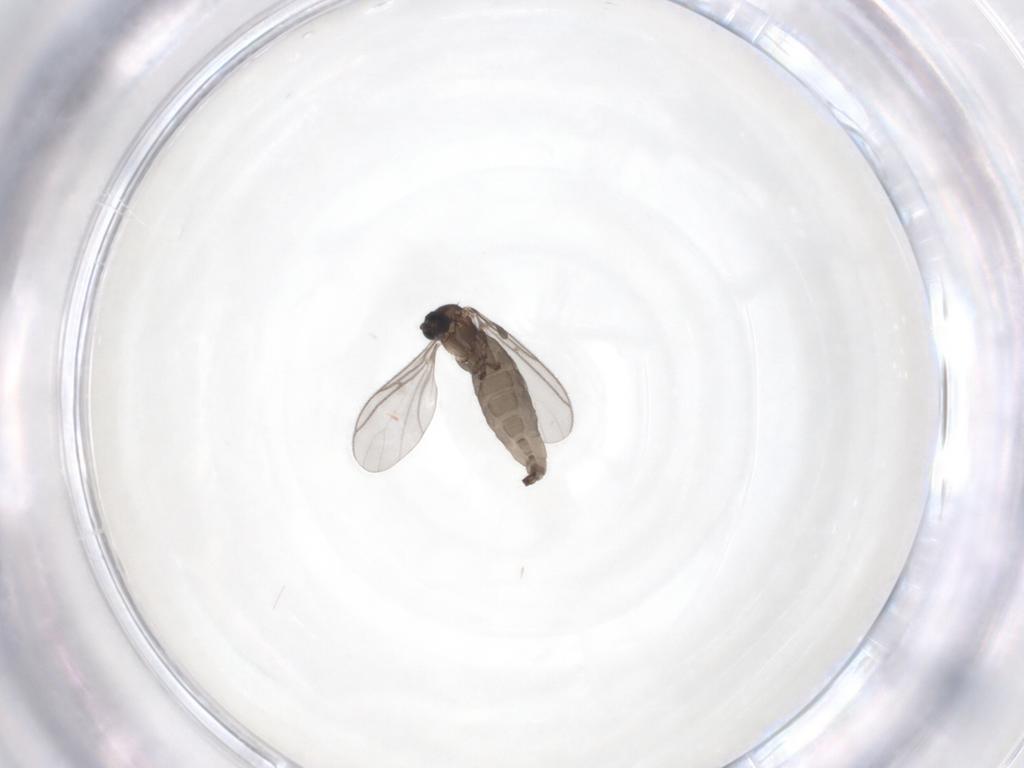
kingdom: Animalia
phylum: Arthropoda
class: Insecta
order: Diptera
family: Sciaridae
